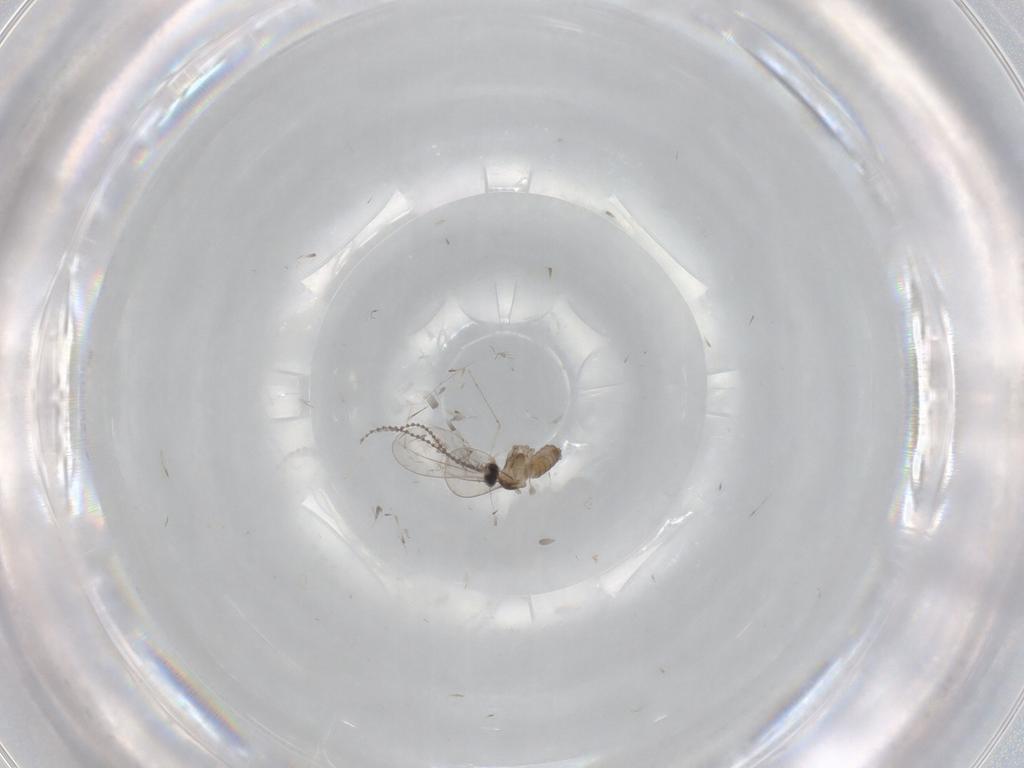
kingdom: Animalia
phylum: Arthropoda
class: Insecta
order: Diptera
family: Cecidomyiidae
